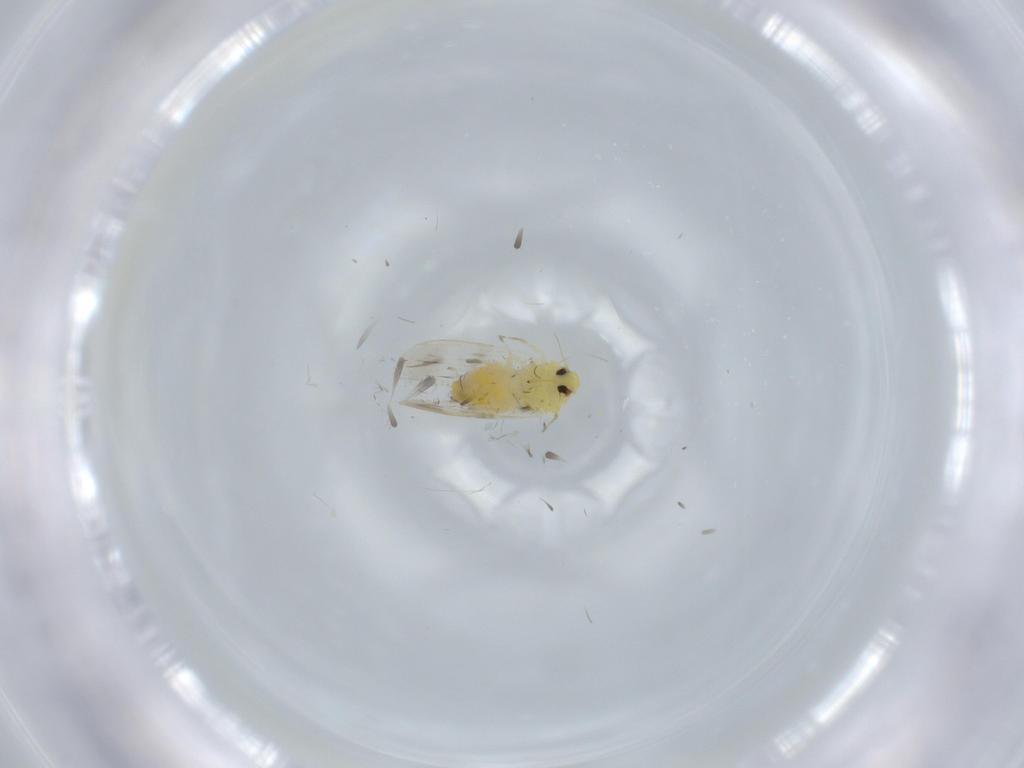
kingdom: Animalia
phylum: Arthropoda
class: Insecta
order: Hemiptera
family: Aleyrodidae
